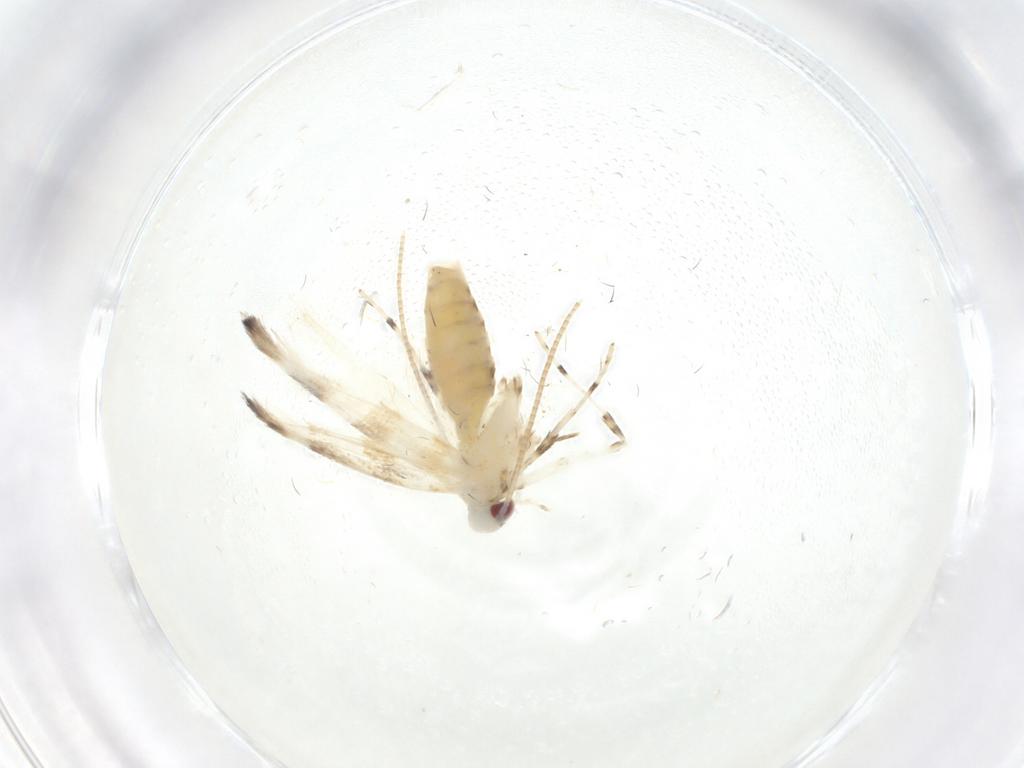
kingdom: Animalia
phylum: Arthropoda
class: Insecta
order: Lepidoptera
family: Gracillariidae
